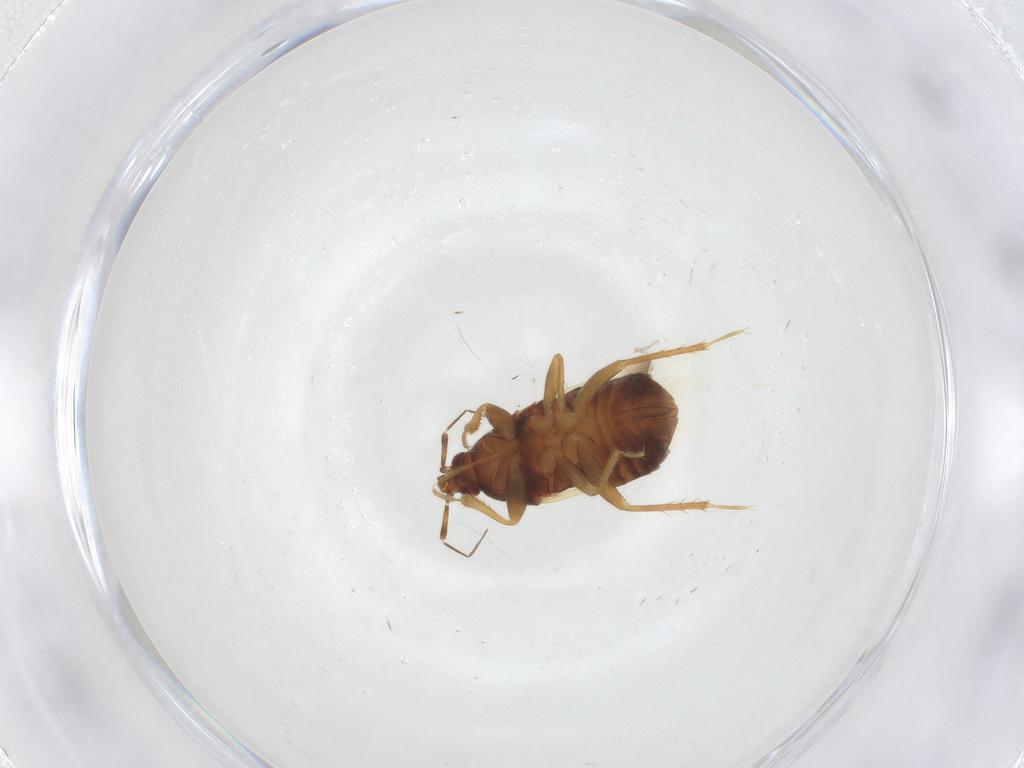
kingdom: Animalia
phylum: Arthropoda
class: Insecta
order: Hemiptera
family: Anthocoridae
